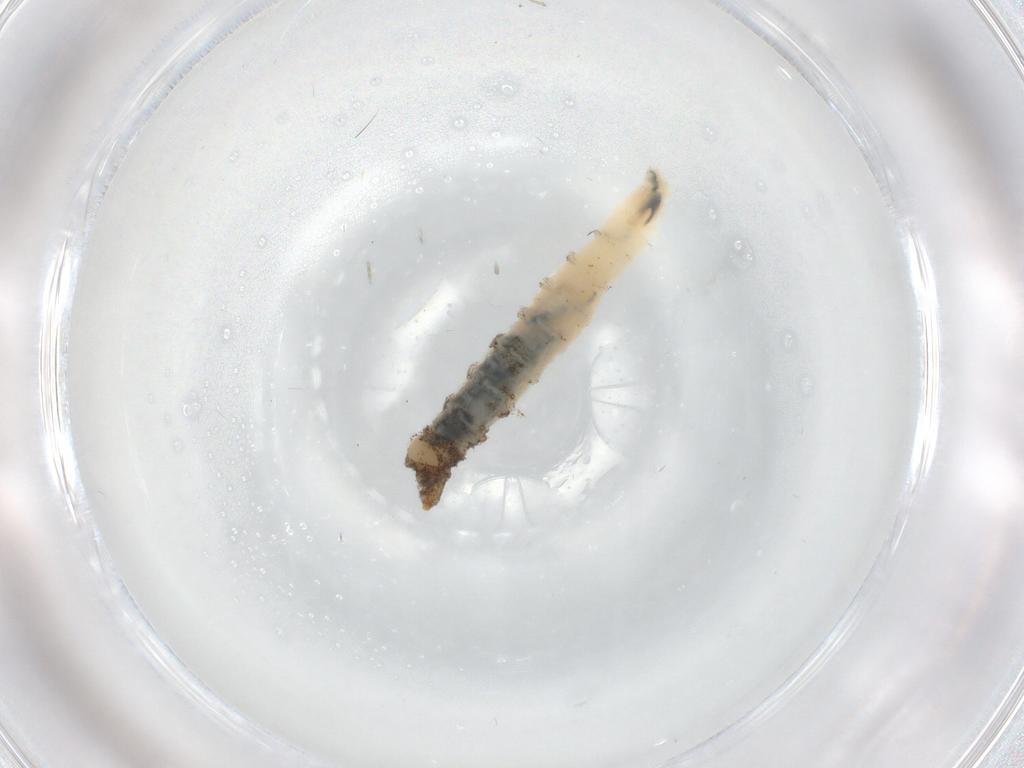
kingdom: Animalia
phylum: Arthropoda
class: Insecta
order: Diptera
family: Ceratopogonidae
